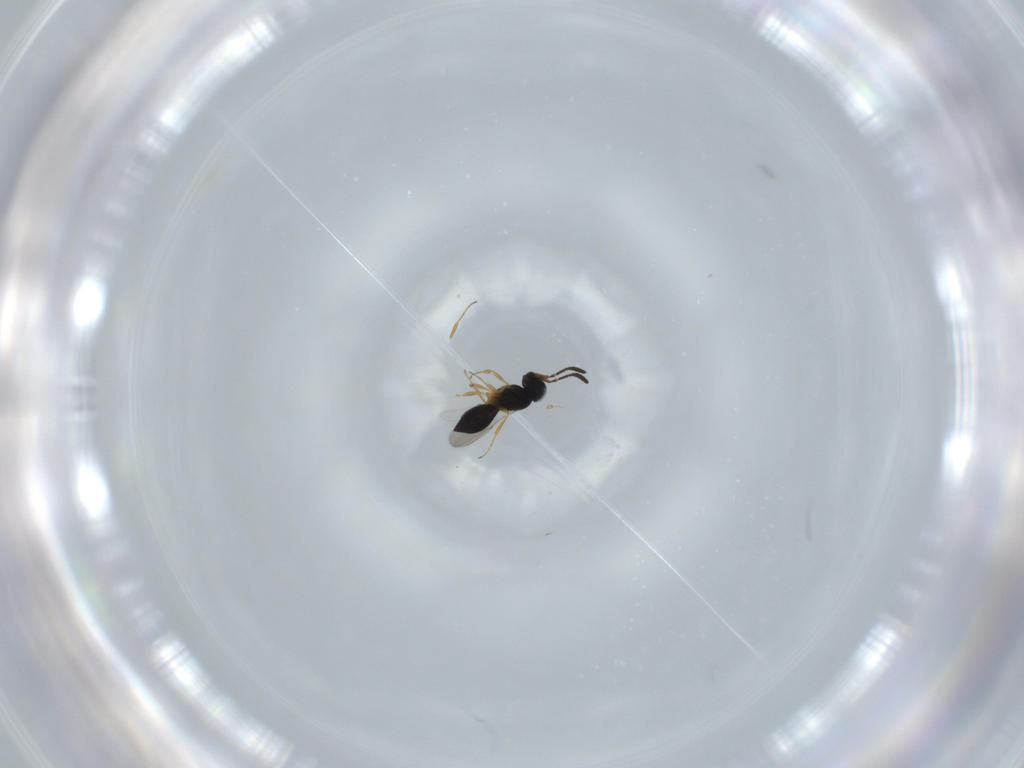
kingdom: Animalia
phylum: Arthropoda
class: Insecta
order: Hymenoptera
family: Scelionidae
